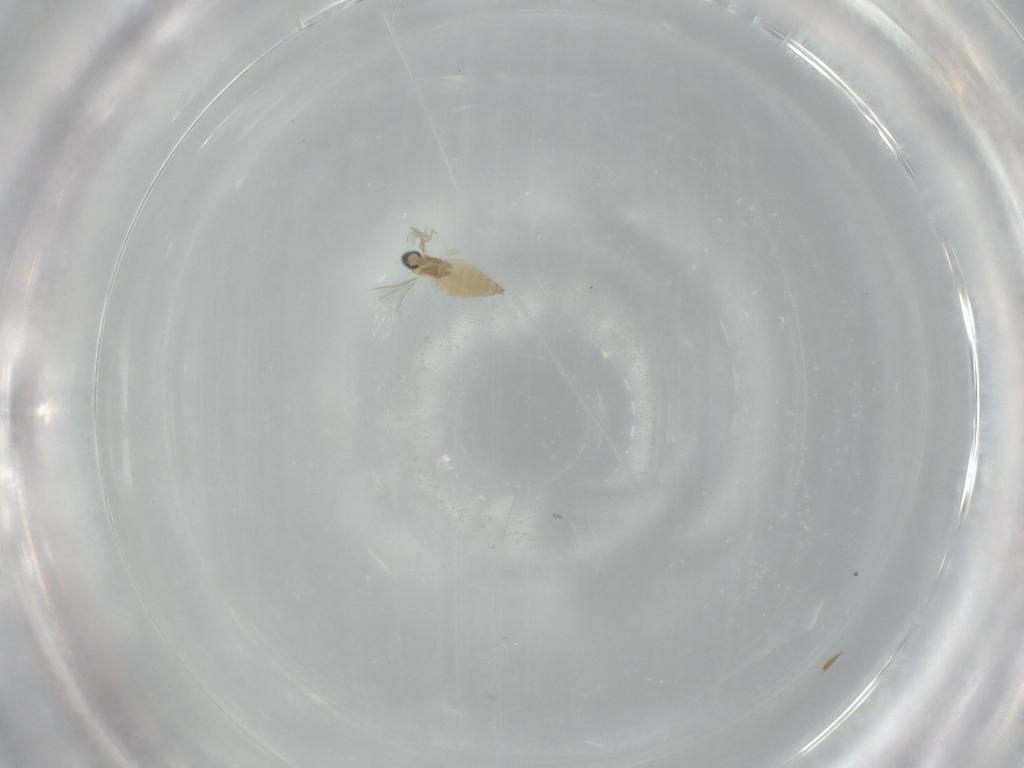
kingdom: Animalia
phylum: Arthropoda
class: Insecta
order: Diptera
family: Cecidomyiidae
